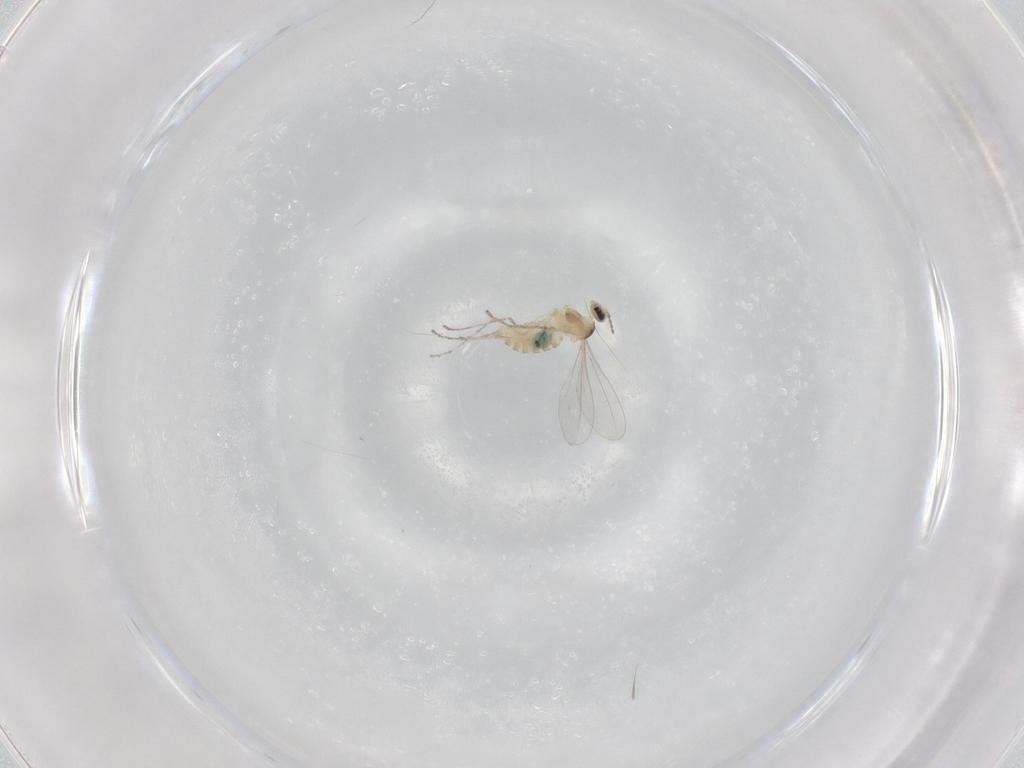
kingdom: Animalia
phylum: Arthropoda
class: Insecta
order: Diptera
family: Cecidomyiidae
